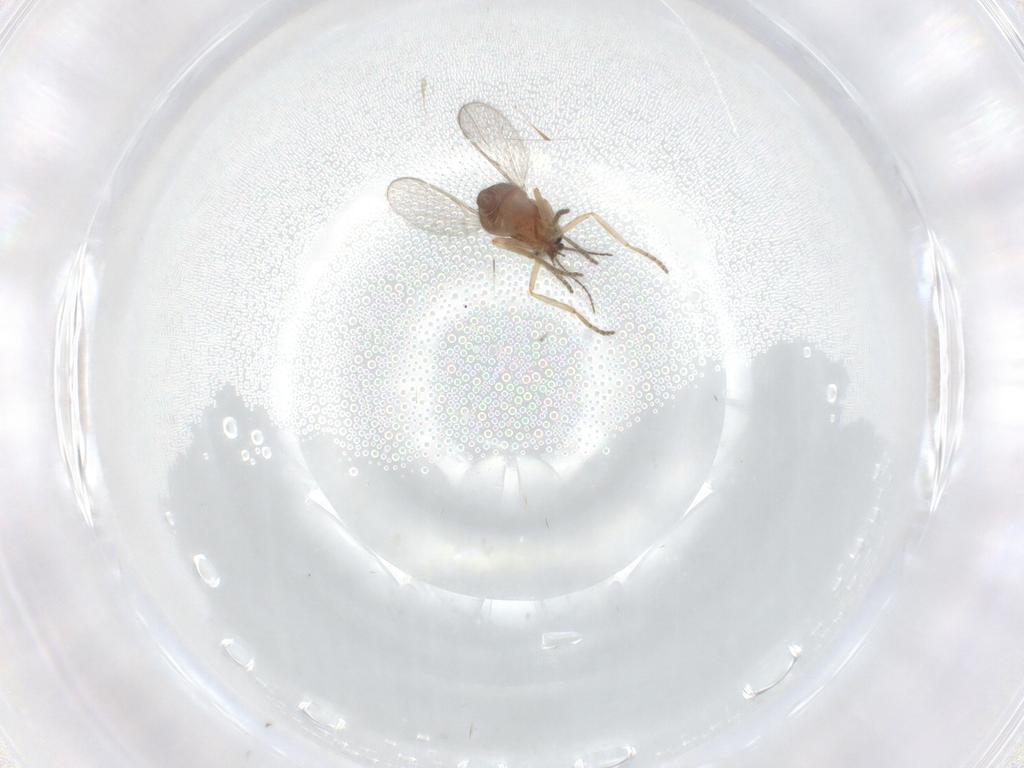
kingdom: Animalia
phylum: Arthropoda
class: Insecta
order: Diptera
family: Ceratopogonidae
